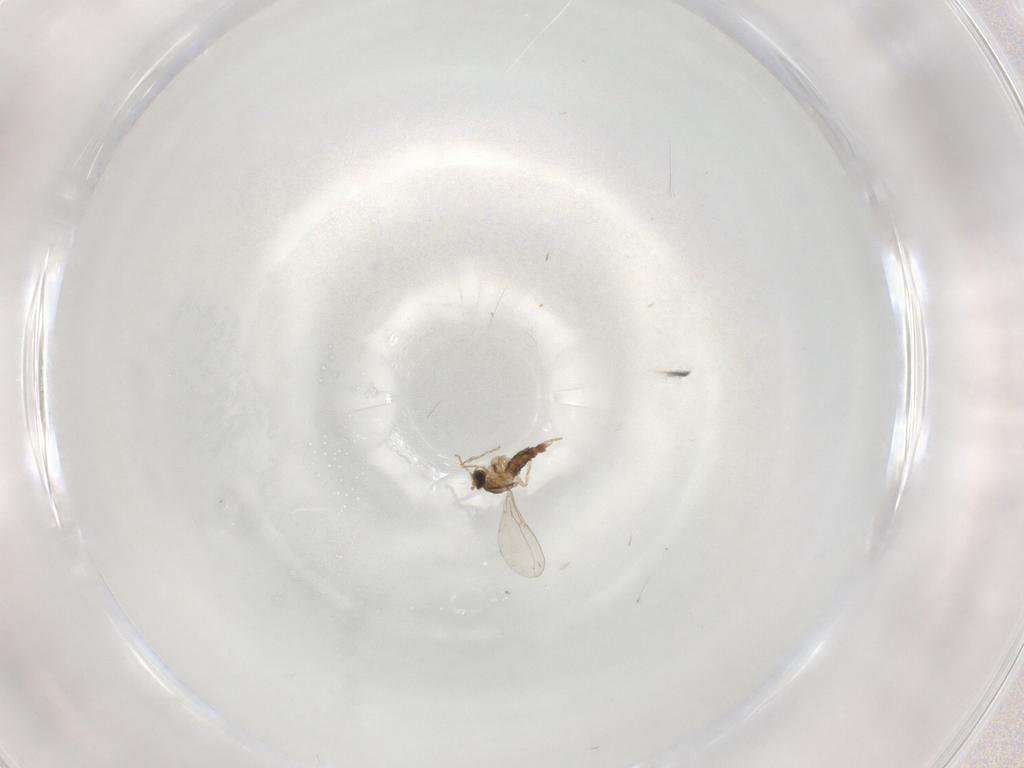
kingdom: Animalia
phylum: Arthropoda
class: Insecta
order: Diptera
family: Cecidomyiidae
